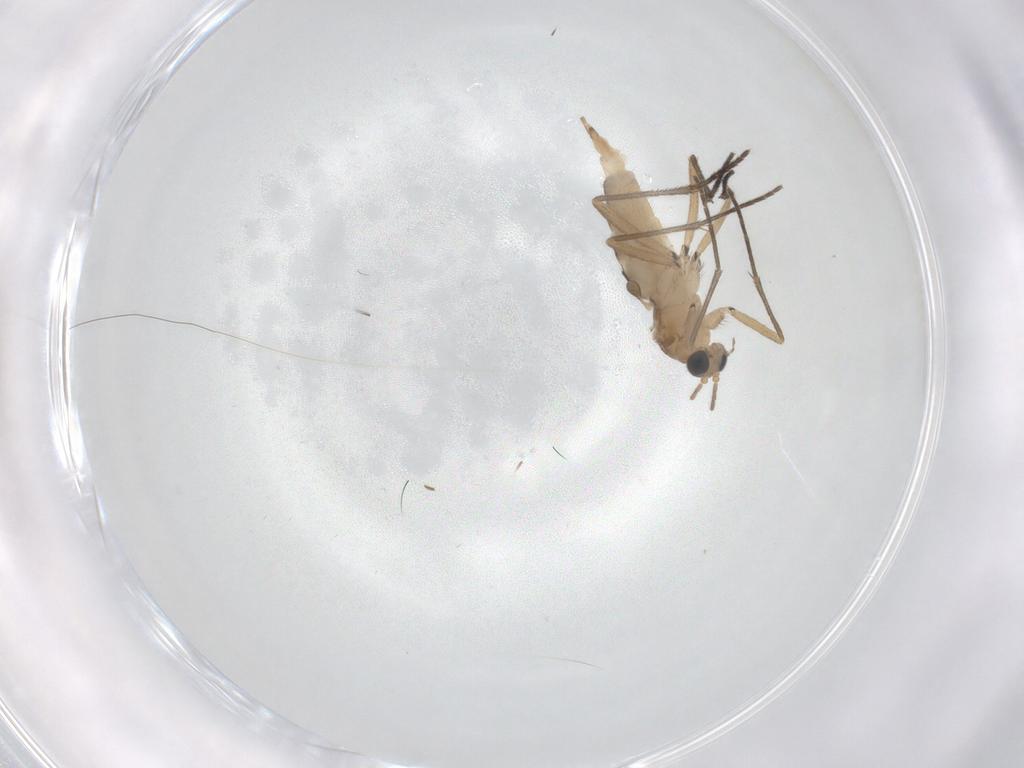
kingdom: Animalia
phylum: Arthropoda
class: Insecta
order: Diptera
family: Sciaridae
